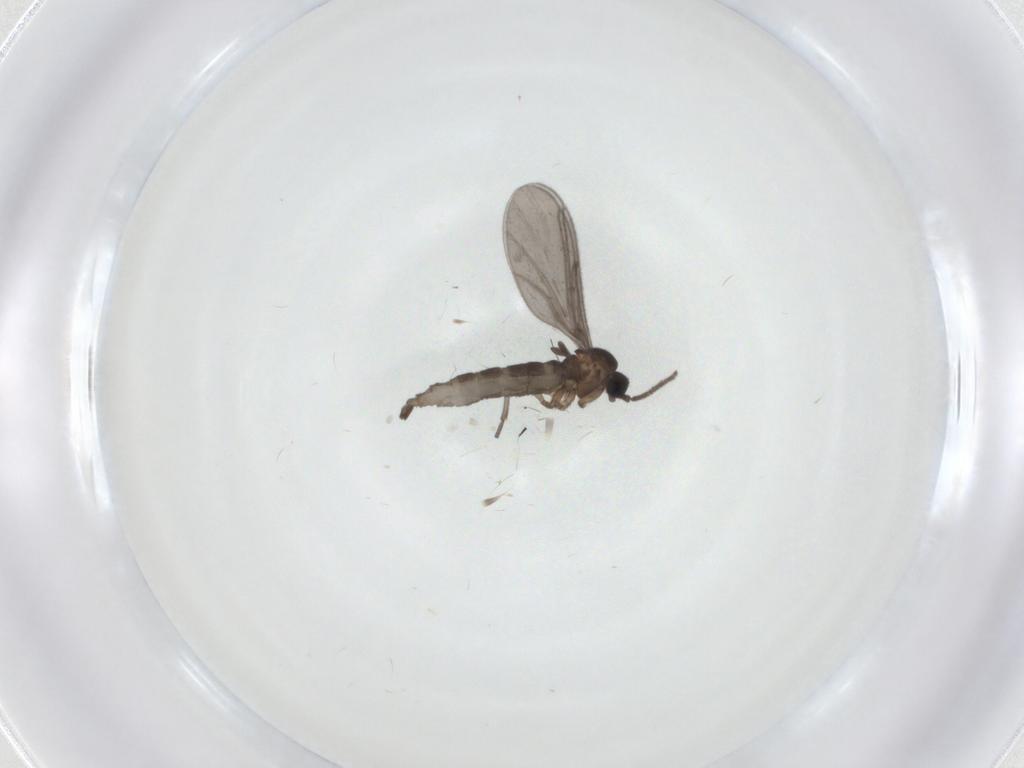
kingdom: Animalia
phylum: Arthropoda
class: Insecta
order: Diptera
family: Sciaridae
